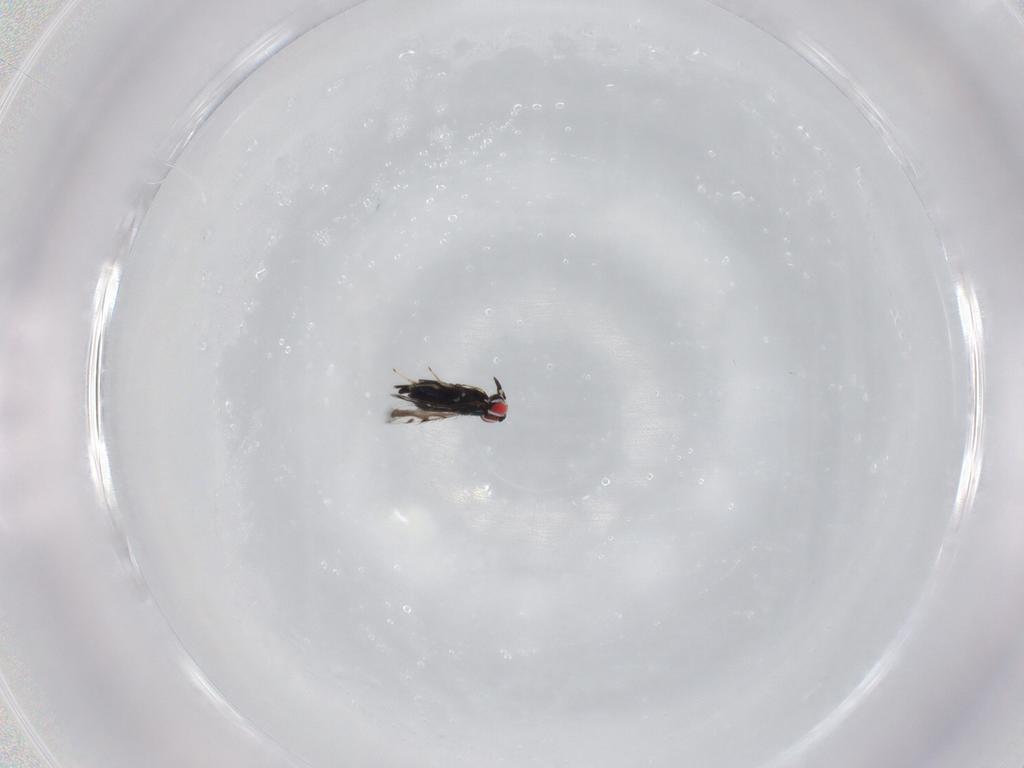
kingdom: Animalia
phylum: Arthropoda
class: Insecta
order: Hymenoptera
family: Azotidae
